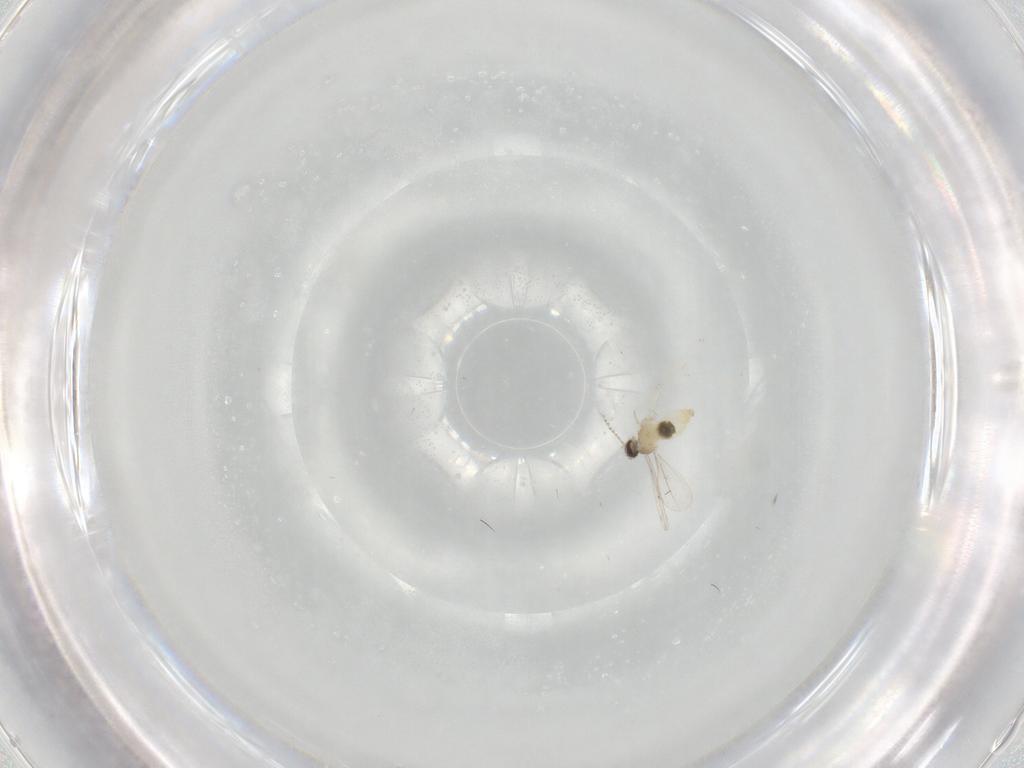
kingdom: Animalia
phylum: Arthropoda
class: Insecta
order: Diptera
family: Cecidomyiidae
